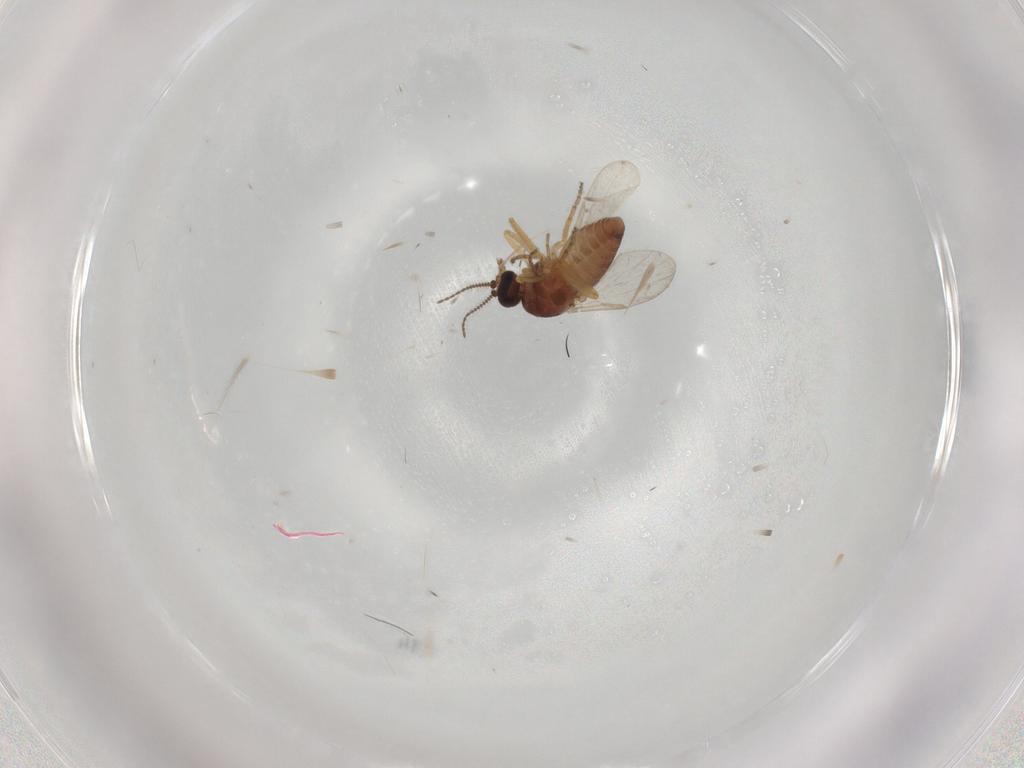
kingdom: Animalia
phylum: Arthropoda
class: Insecta
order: Diptera
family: Ceratopogonidae
